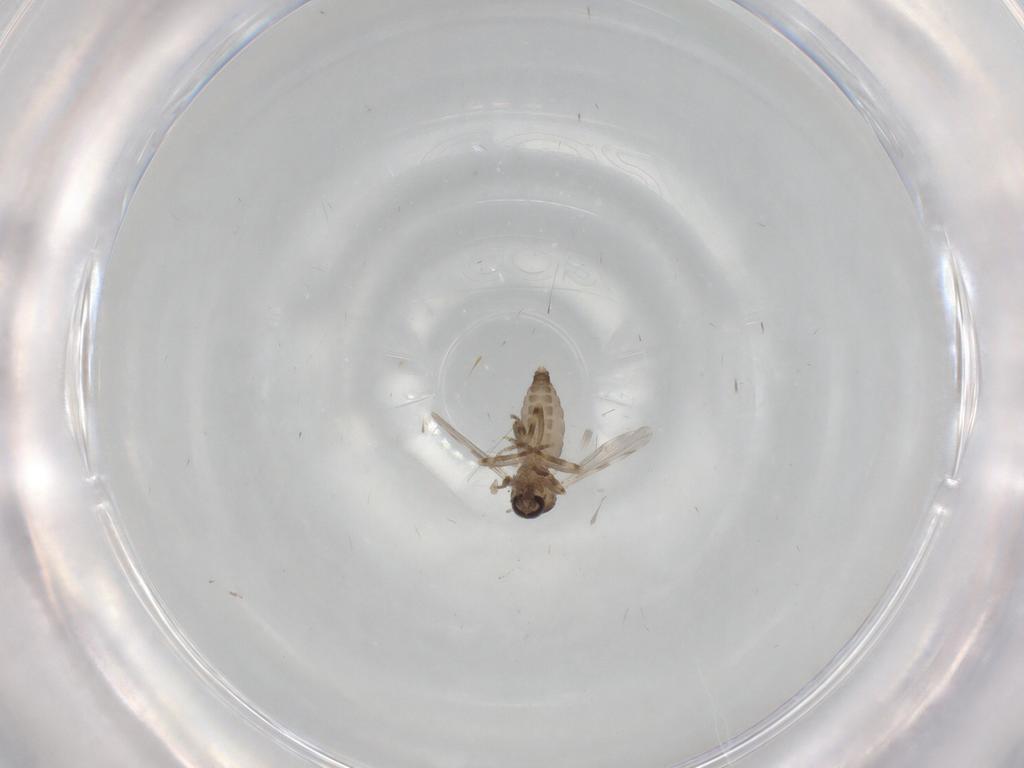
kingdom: Animalia
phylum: Arthropoda
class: Insecta
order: Diptera
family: Ceratopogonidae
